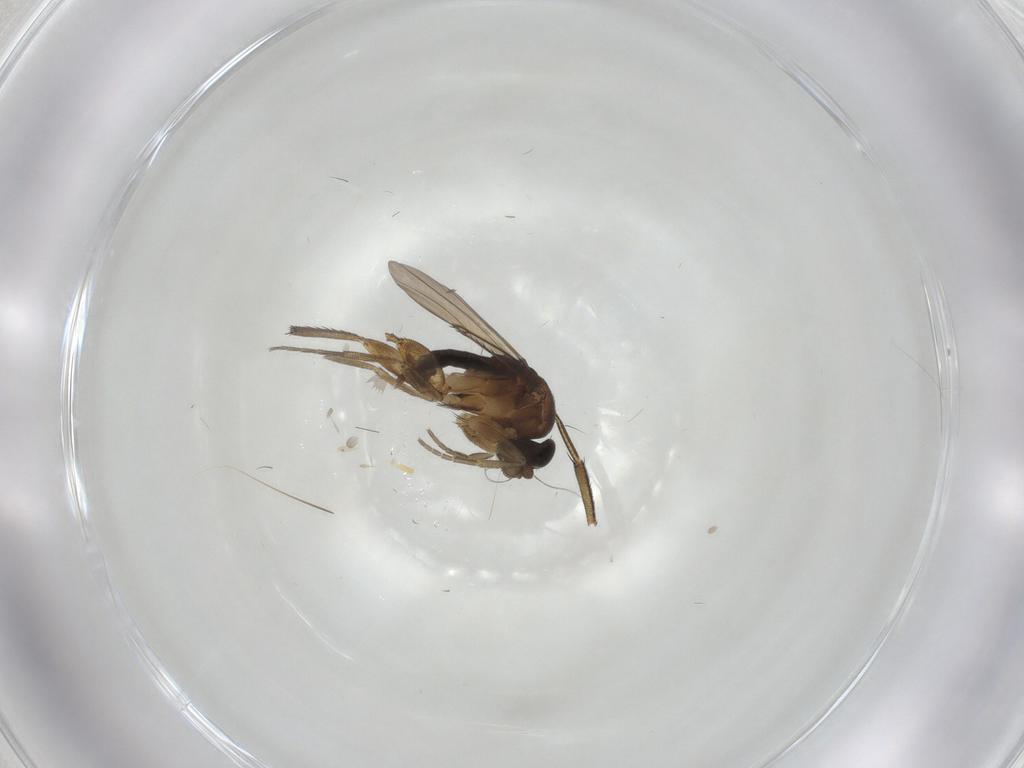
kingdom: Animalia
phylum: Arthropoda
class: Insecta
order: Diptera
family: Phoridae
